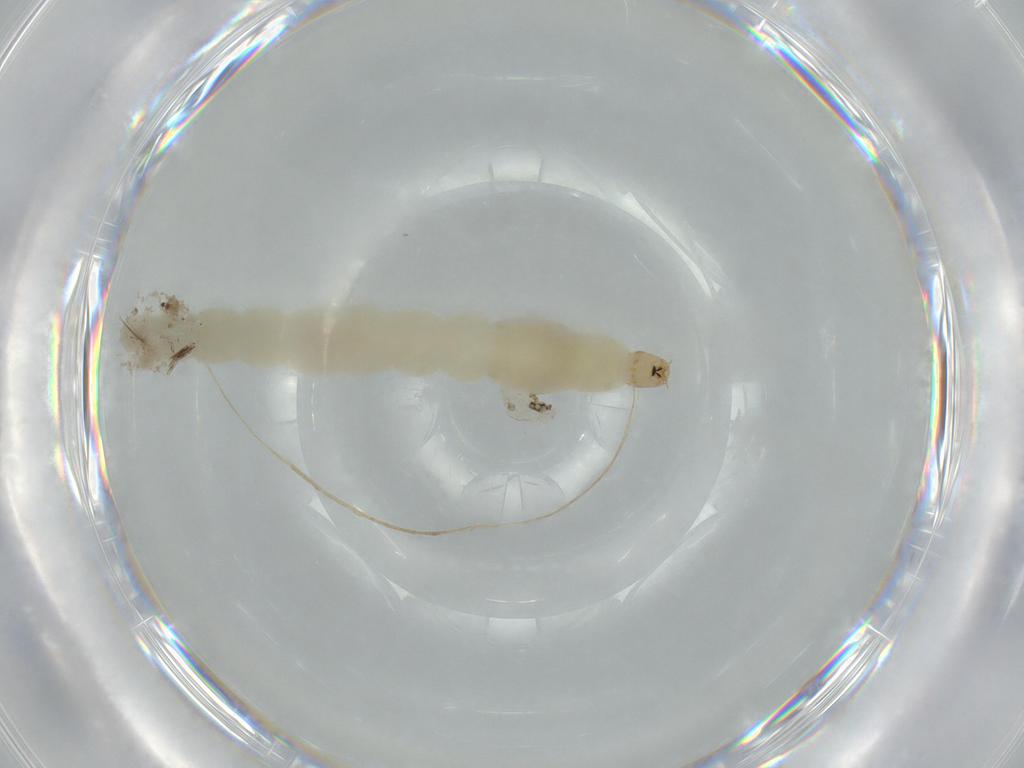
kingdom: Animalia
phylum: Arthropoda
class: Insecta
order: Diptera
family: Chironomidae
